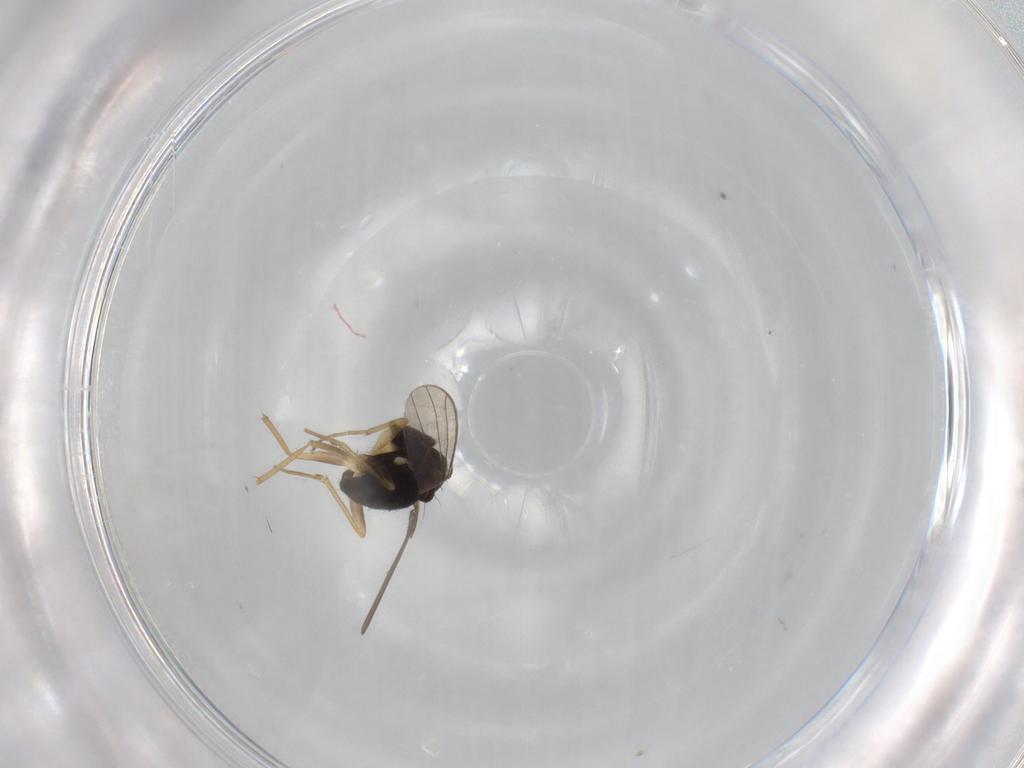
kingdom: Animalia
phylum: Arthropoda
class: Insecta
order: Diptera
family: Dolichopodidae
